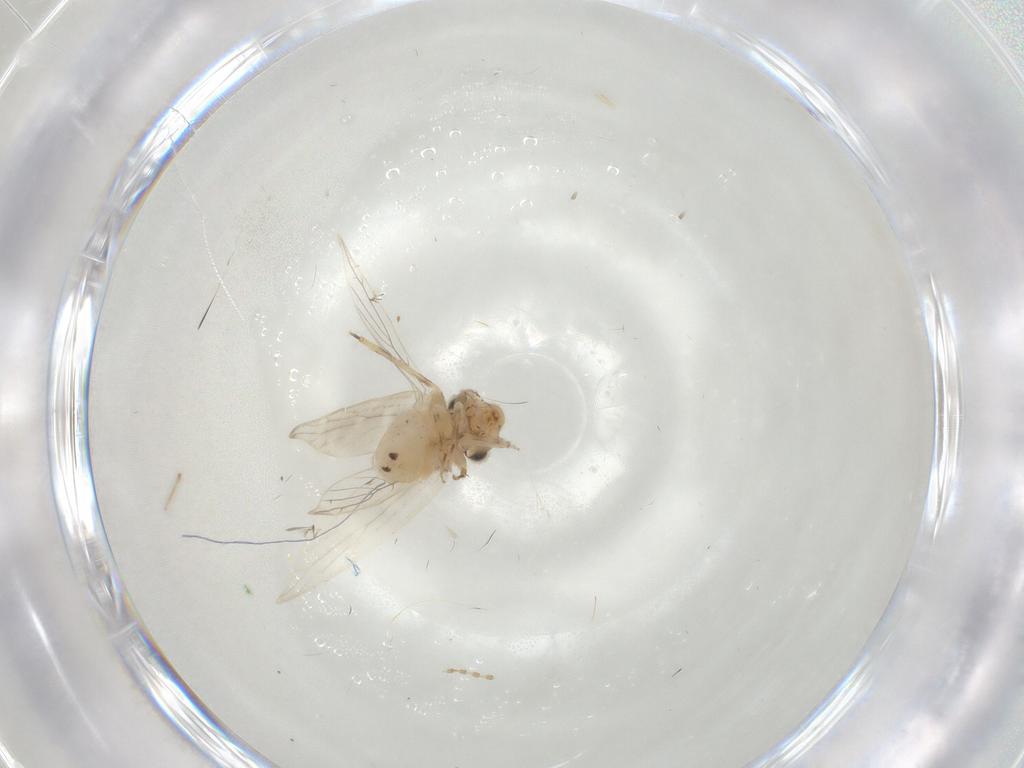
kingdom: Animalia
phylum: Arthropoda
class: Insecta
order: Psocodea
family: Lepidopsocidae
